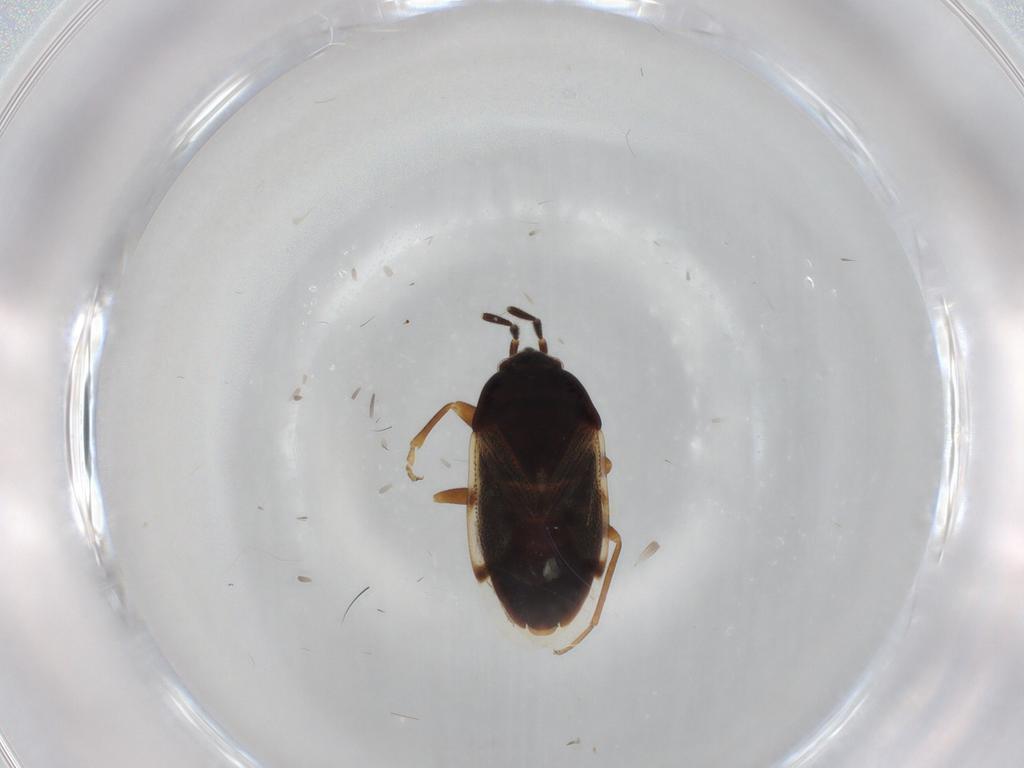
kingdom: Animalia
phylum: Arthropoda
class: Insecta
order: Hemiptera
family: Rhyparochromidae
